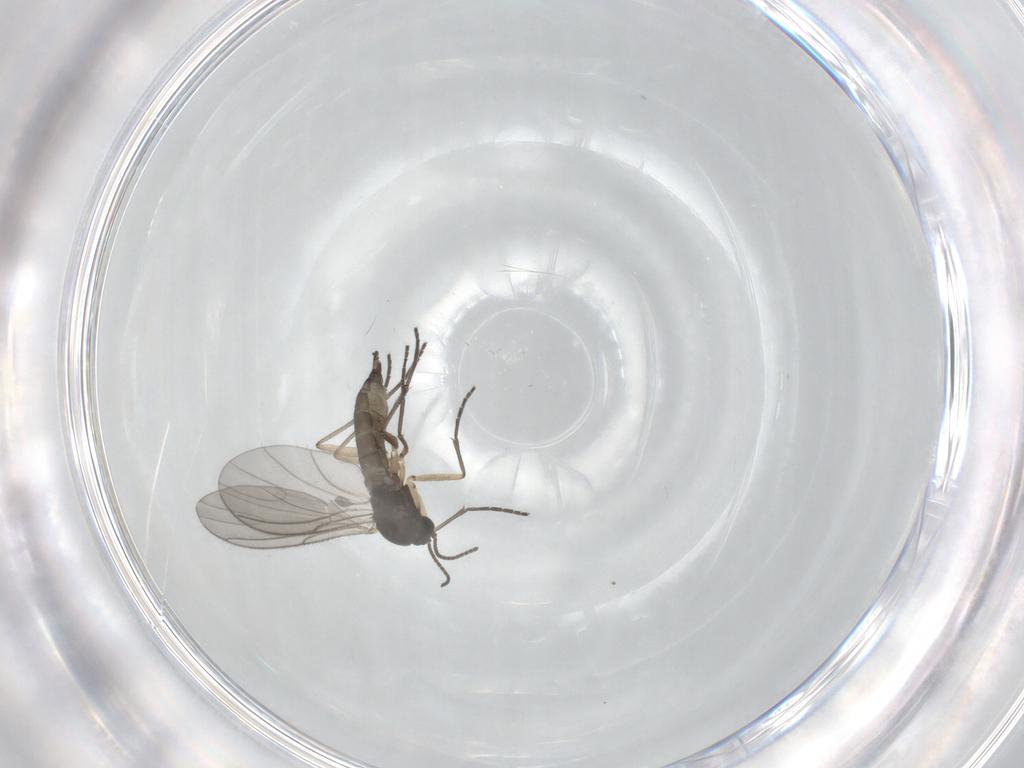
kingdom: Animalia
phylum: Arthropoda
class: Insecta
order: Diptera
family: Sciaridae
